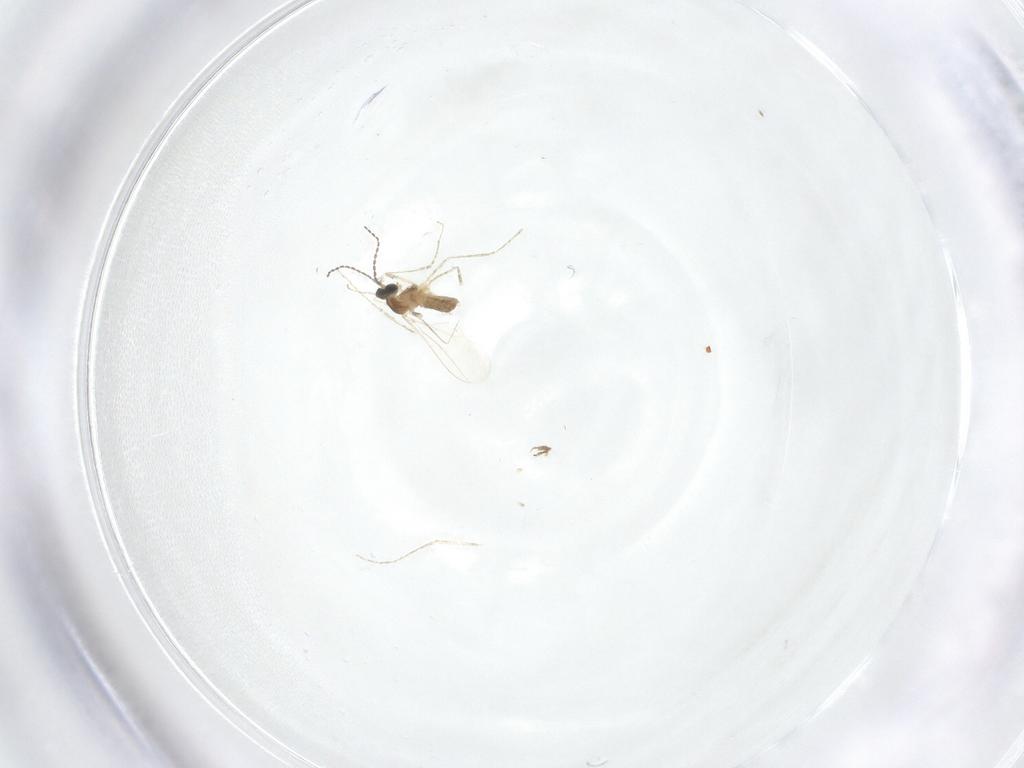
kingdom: Animalia
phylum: Arthropoda
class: Insecta
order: Diptera
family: Cecidomyiidae
